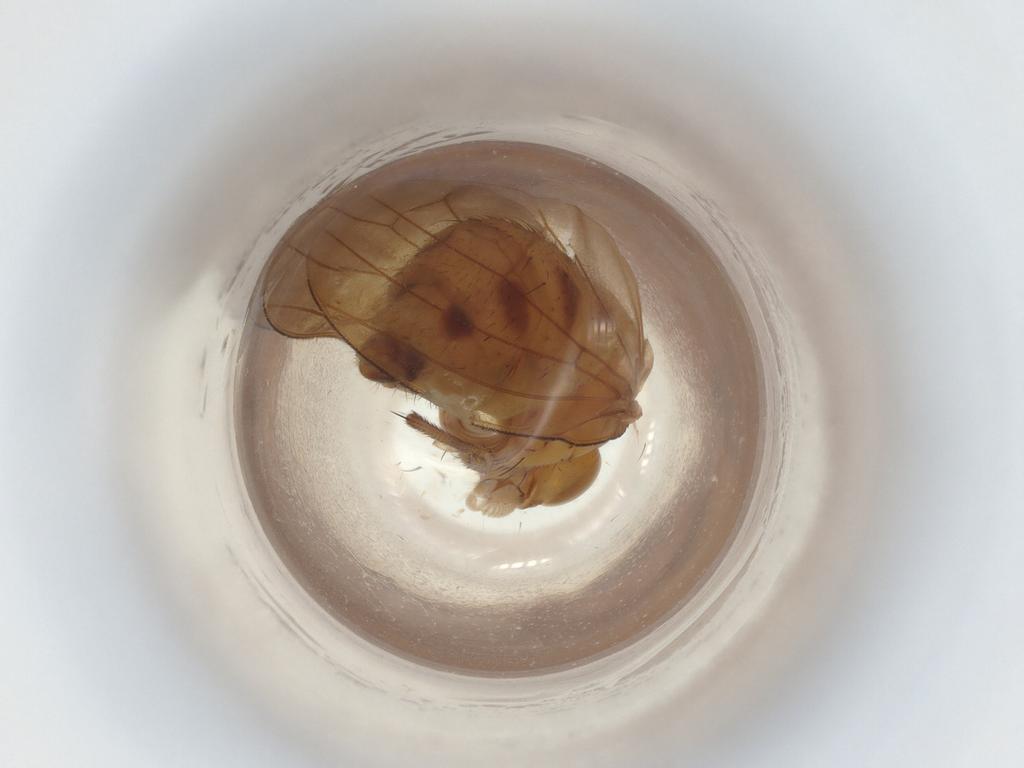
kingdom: Animalia
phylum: Arthropoda
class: Insecta
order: Diptera
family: Lauxaniidae
